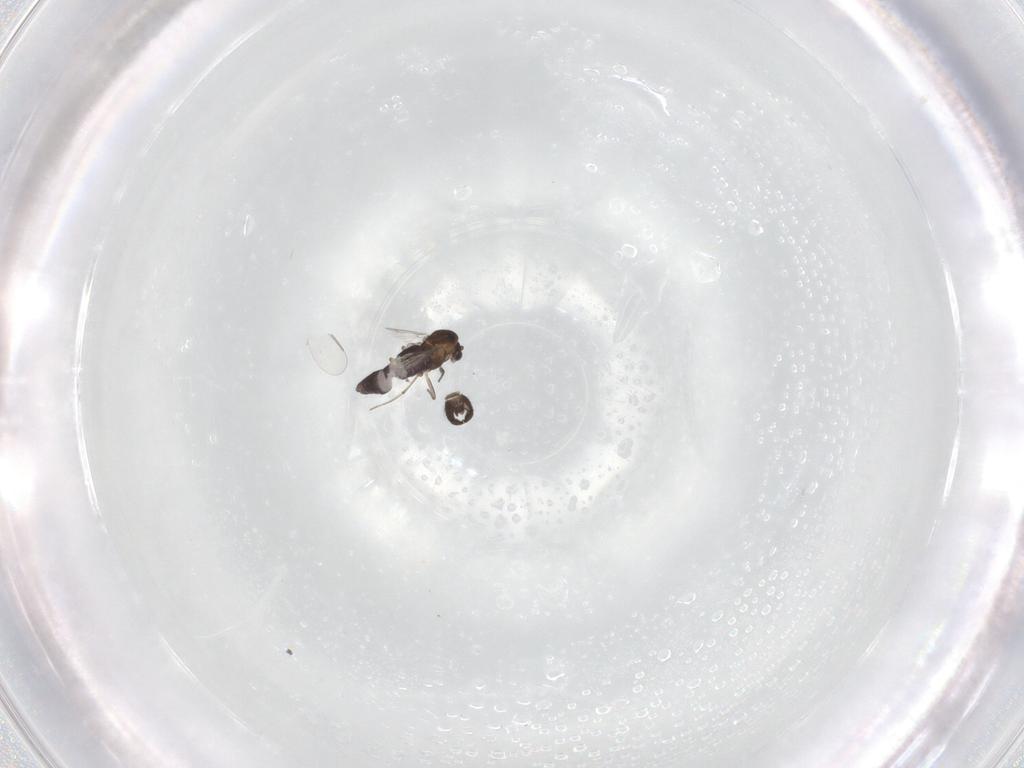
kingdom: Animalia
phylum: Arthropoda
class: Insecta
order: Diptera
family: Chironomidae
